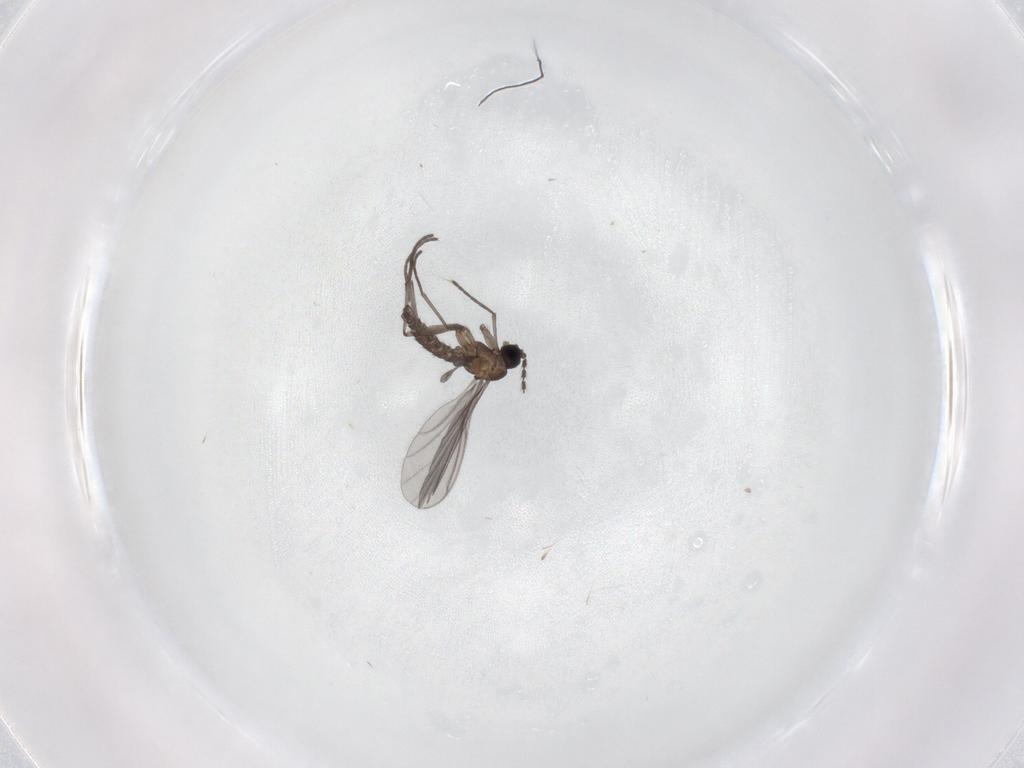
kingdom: Animalia
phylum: Arthropoda
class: Insecta
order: Diptera
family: Sciaridae
